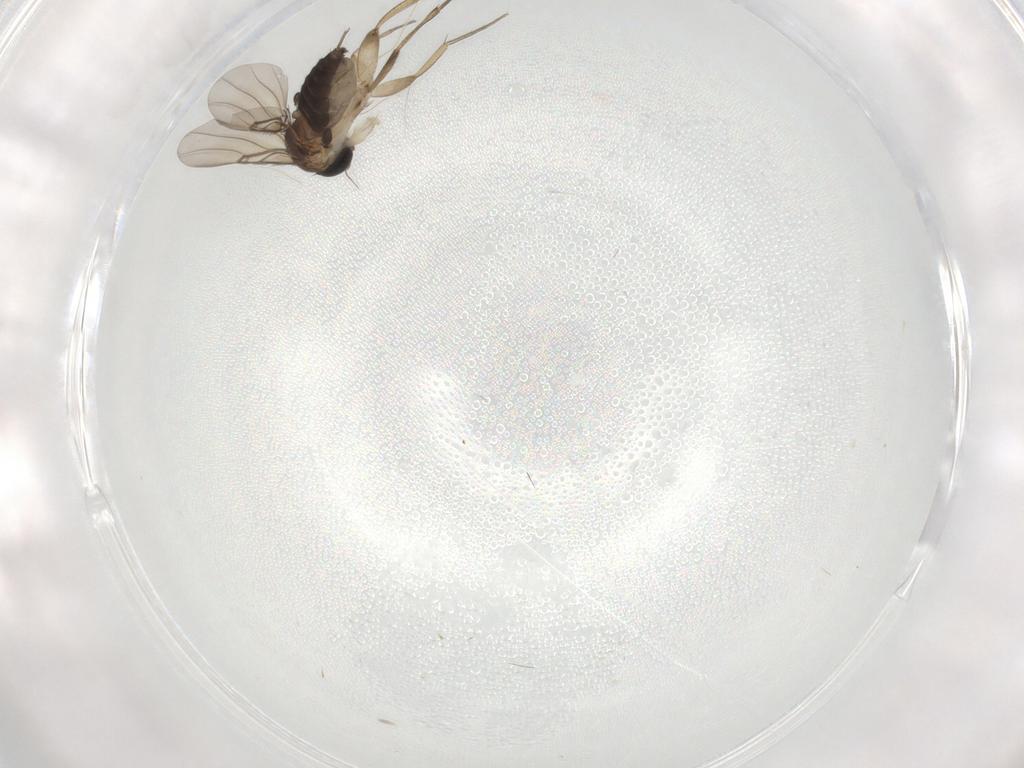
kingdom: Animalia
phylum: Arthropoda
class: Insecta
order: Diptera
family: Phoridae
